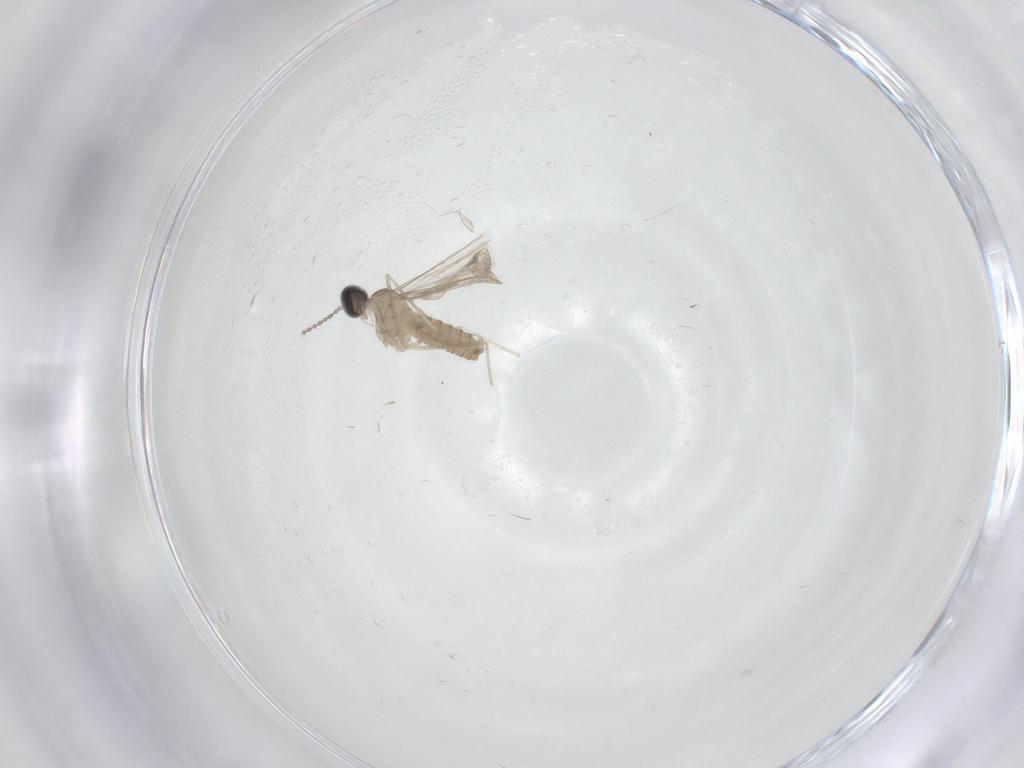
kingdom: Animalia
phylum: Arthropoda
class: Insecta
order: Diptera
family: Cecidomyiidae
